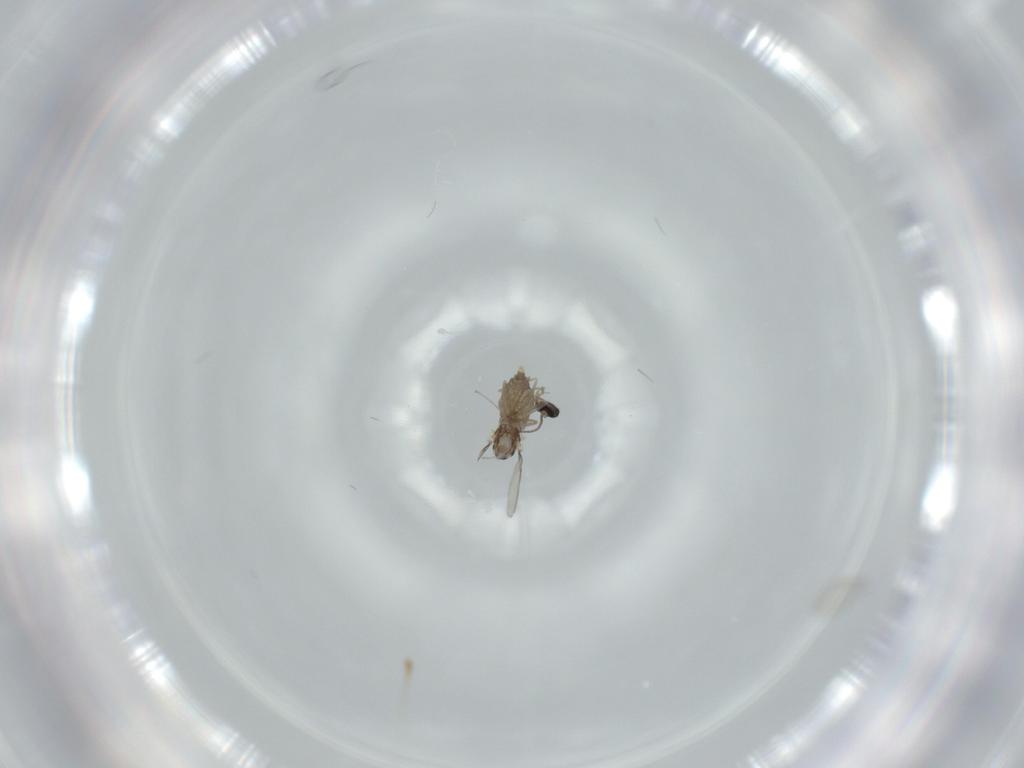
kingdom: Animalia
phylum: Arthropoda
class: Insecta
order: Diptera
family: Cecidomyiidae
